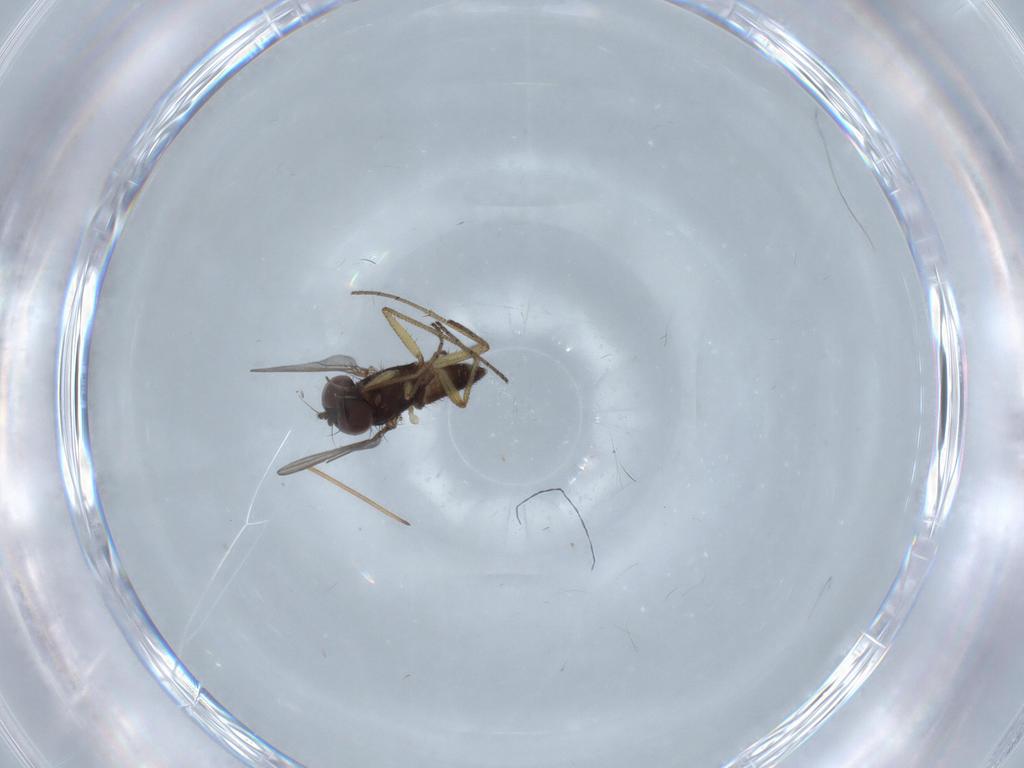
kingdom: Animalia
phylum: Arthropoda
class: Insecta
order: Diptera
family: Dolichopodidae
